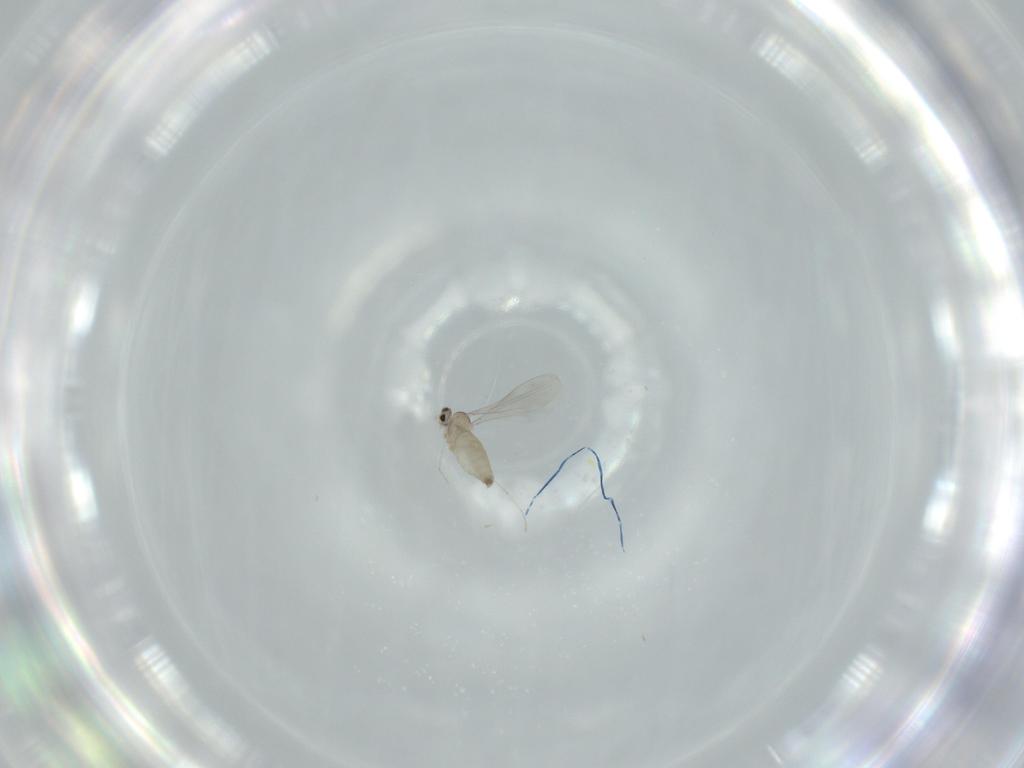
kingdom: Animalia
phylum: Arthropoda
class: Insecta
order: Diptera
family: Cecidomyiidae
